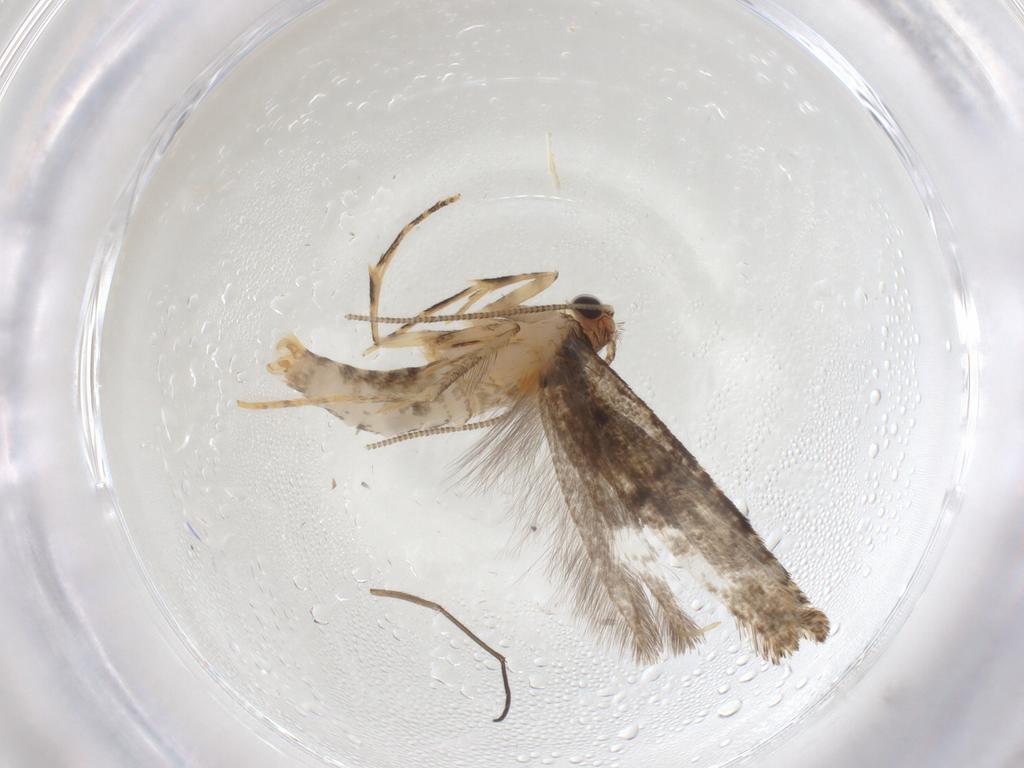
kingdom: Animalia
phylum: Arthropoda
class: Insecta
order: Lepidoptera
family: Tineidae
